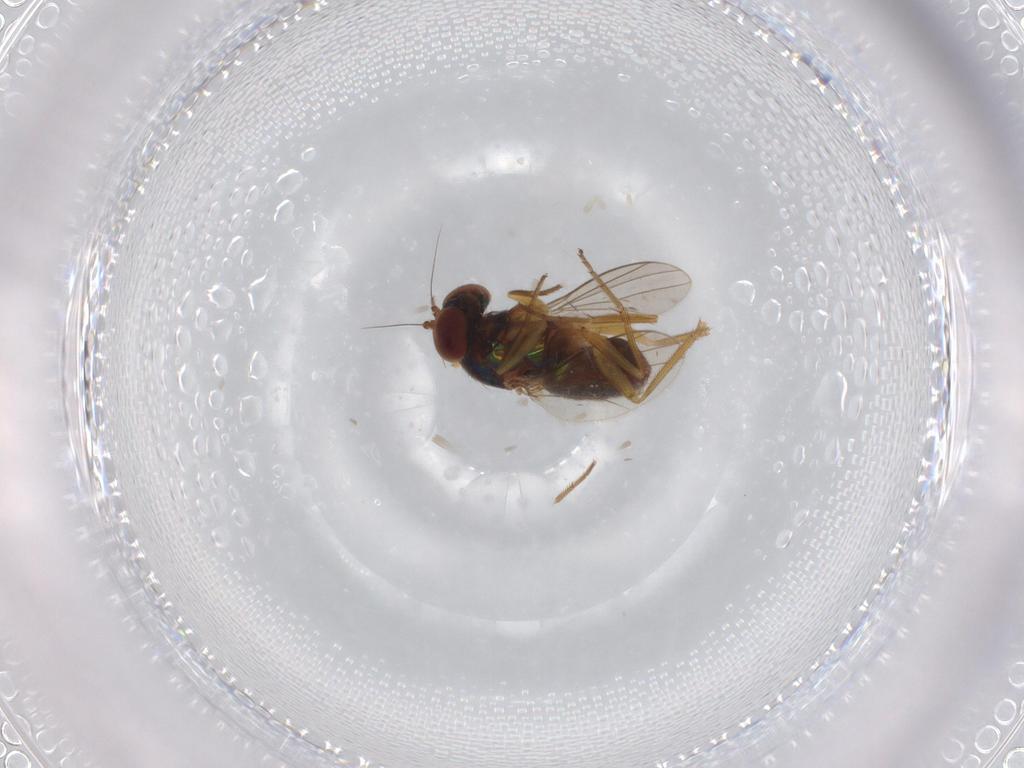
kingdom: Animalia
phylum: Arthropoda
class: Insecta
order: Diptera
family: Dolichopodidae
